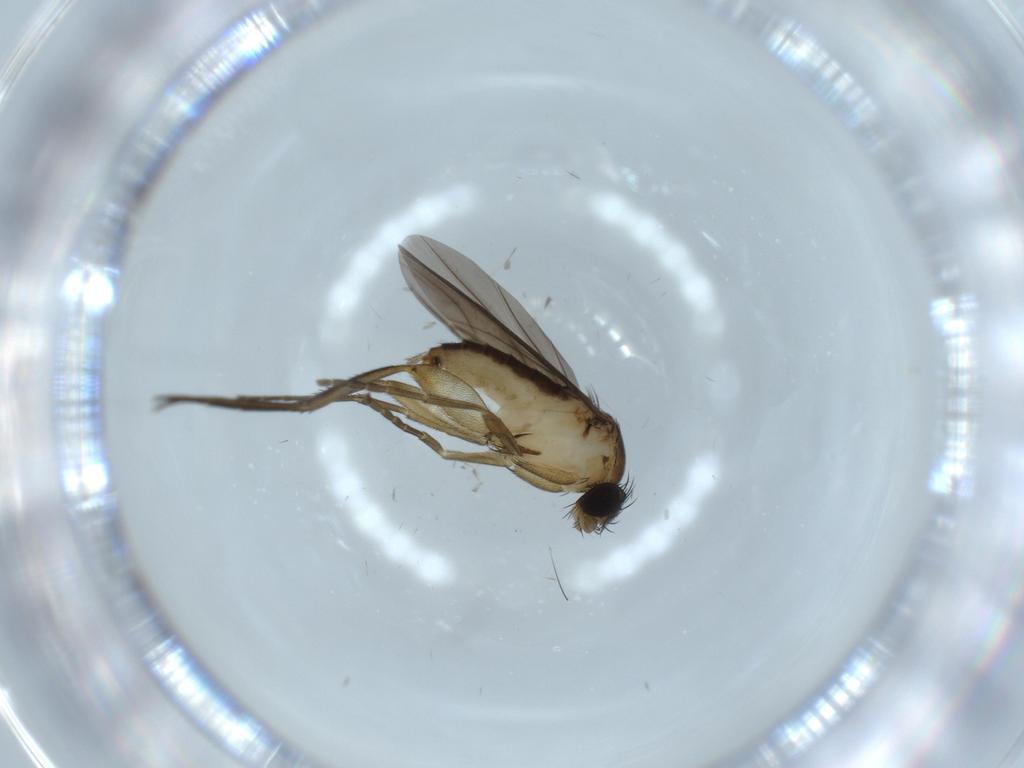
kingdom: Animalia
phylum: Arthropoda
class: Insecta
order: Diptera
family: Phoridae
